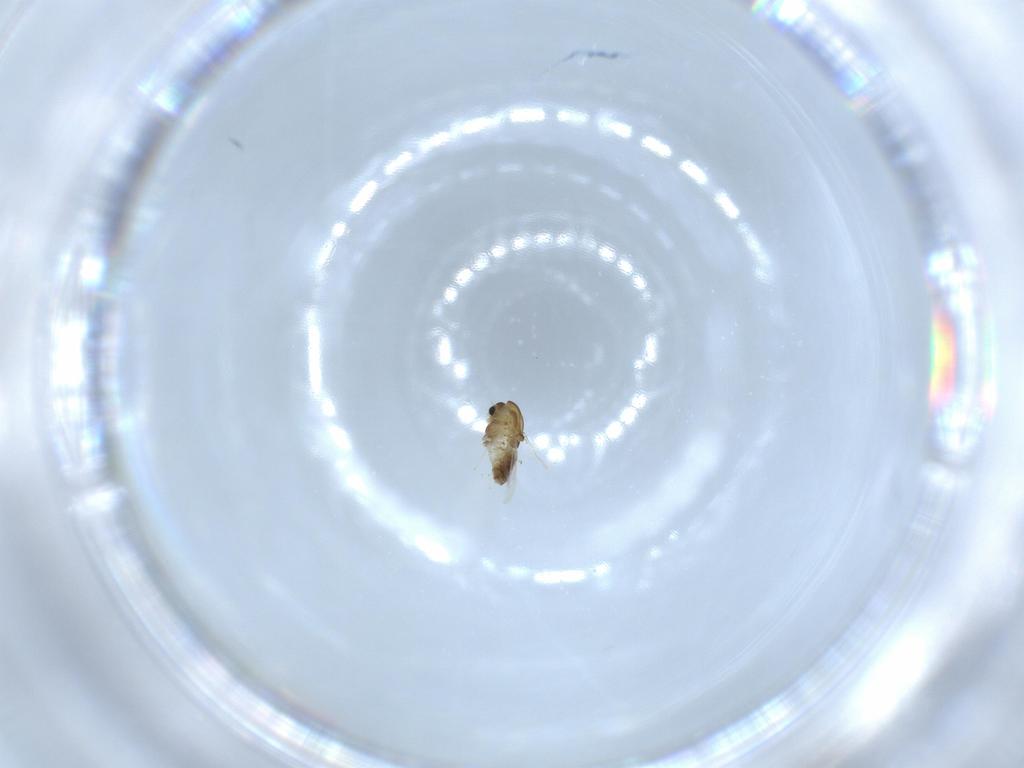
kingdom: Animalia
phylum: Arthropoda
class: Insecta
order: Diptera
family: Chironomidae
